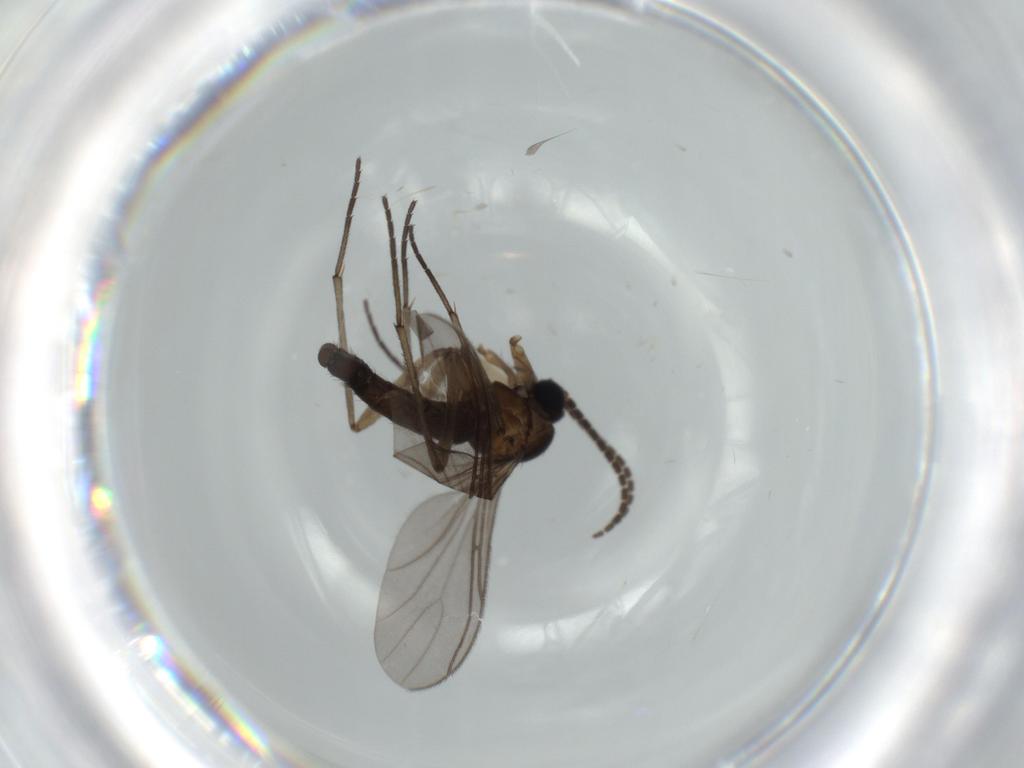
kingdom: Animalia
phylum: Arthropoda
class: Insecta
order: Diptera
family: Sciaridae
